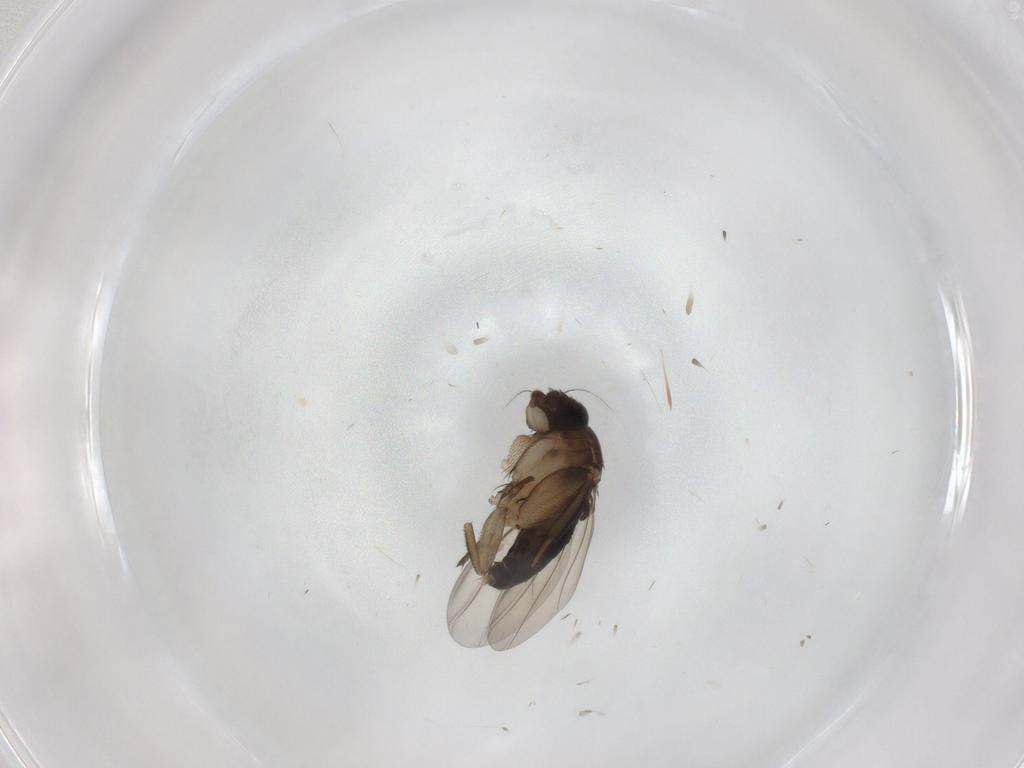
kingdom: Animalia
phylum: Arthropoda
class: Insecta
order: Diptera
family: Phoridae
